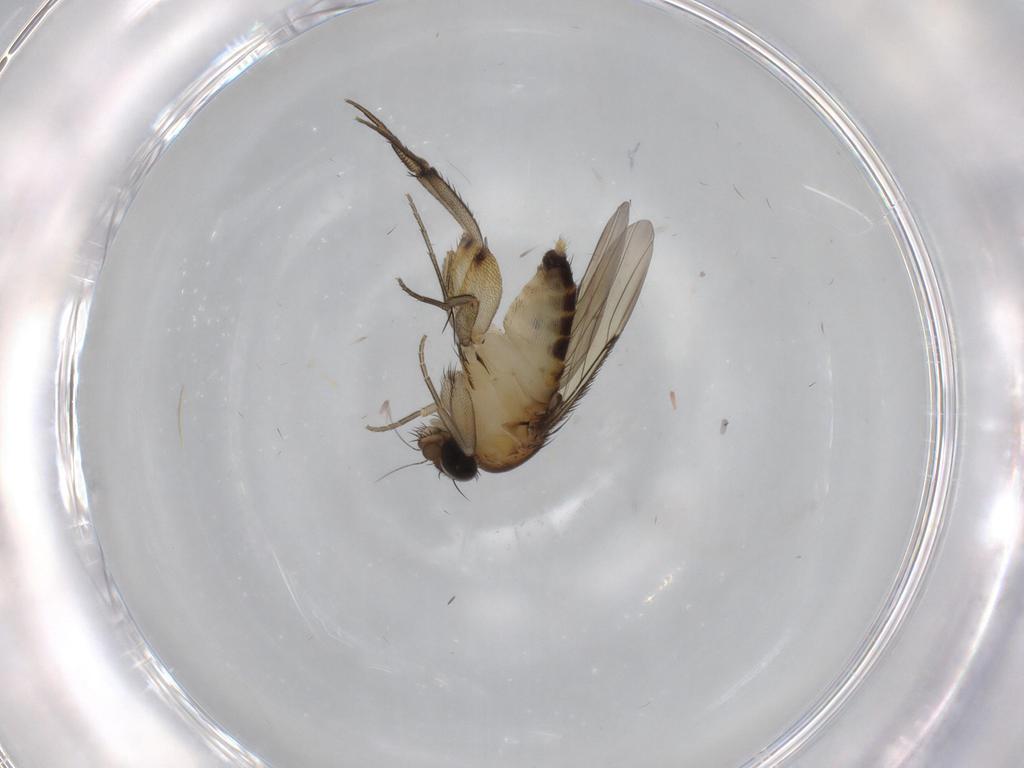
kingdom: Animalia
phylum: Arthropoda
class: Insecta
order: Diptera
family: Phoridae
